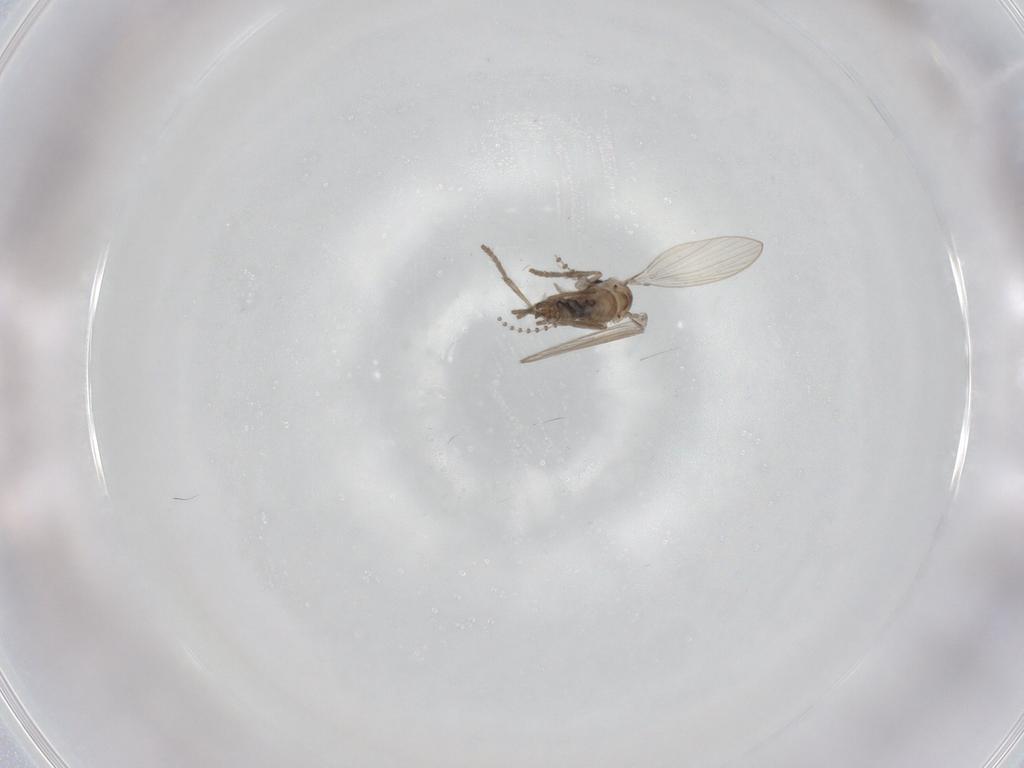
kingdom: Animalia
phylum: Arthropoda
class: Insecta
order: Diptera
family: Psychodidae
